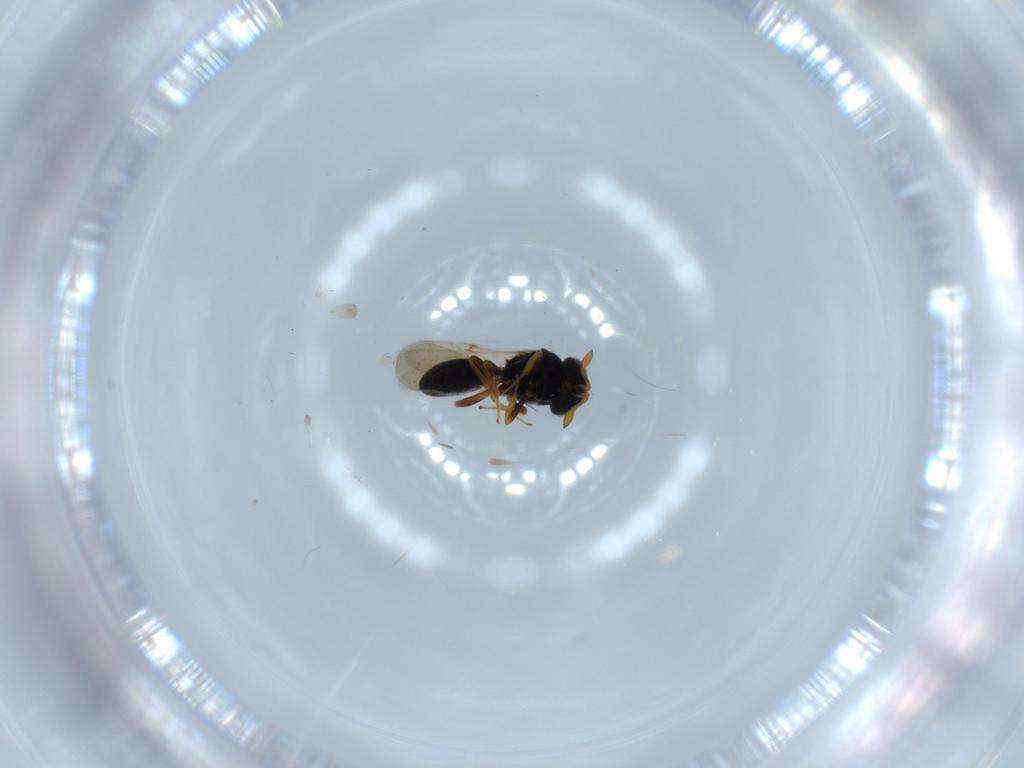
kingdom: Animalia
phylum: Arthropoda
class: Insecta
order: Hymenoptera
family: Scelionidae
